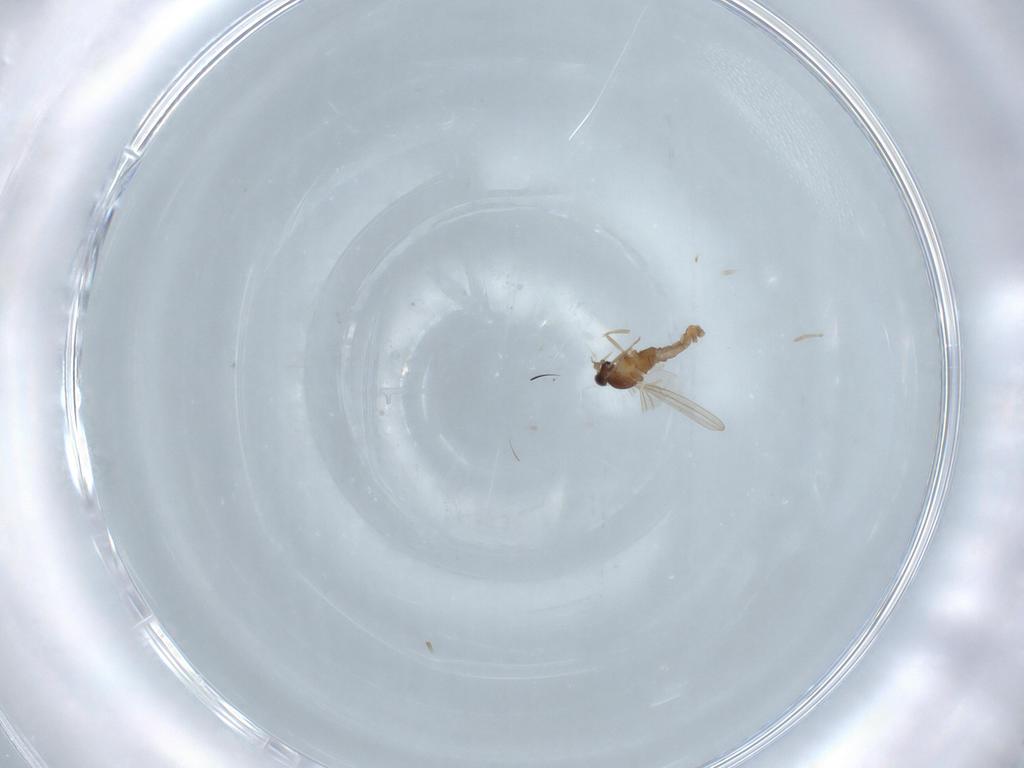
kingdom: Animalia
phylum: Arthropoda
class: Insecta
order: Diptera
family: Cecidomyiidae
